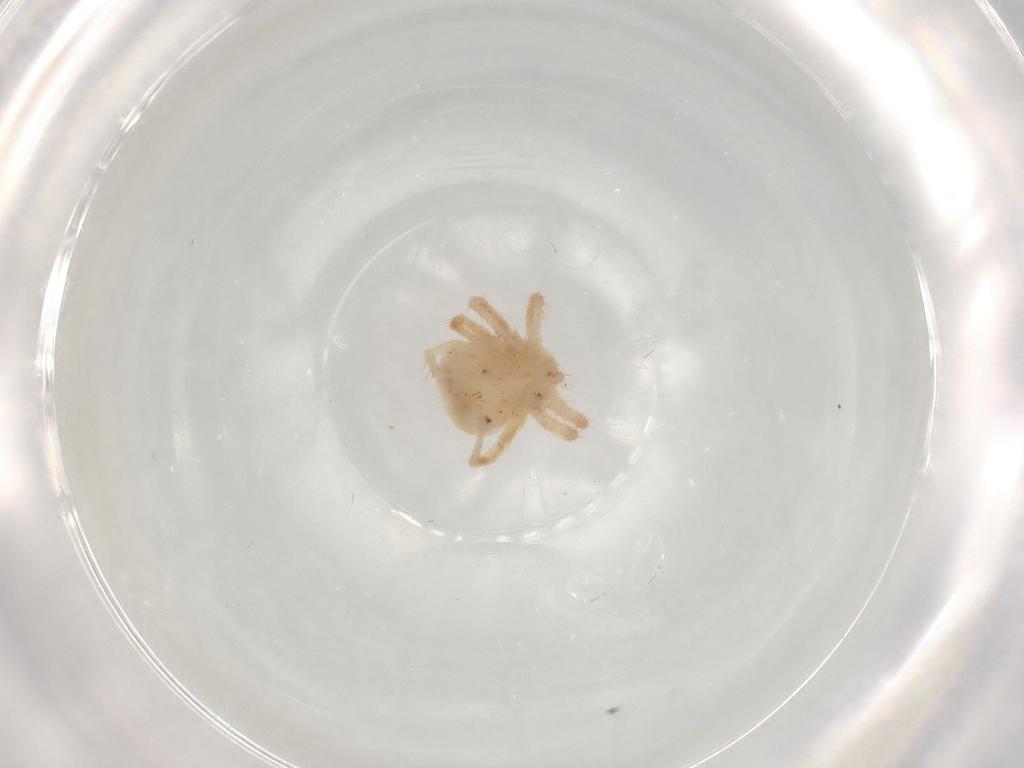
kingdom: Animalia
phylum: Arthropoda
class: Arachnida
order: Trombidiformes
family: Anystidae
